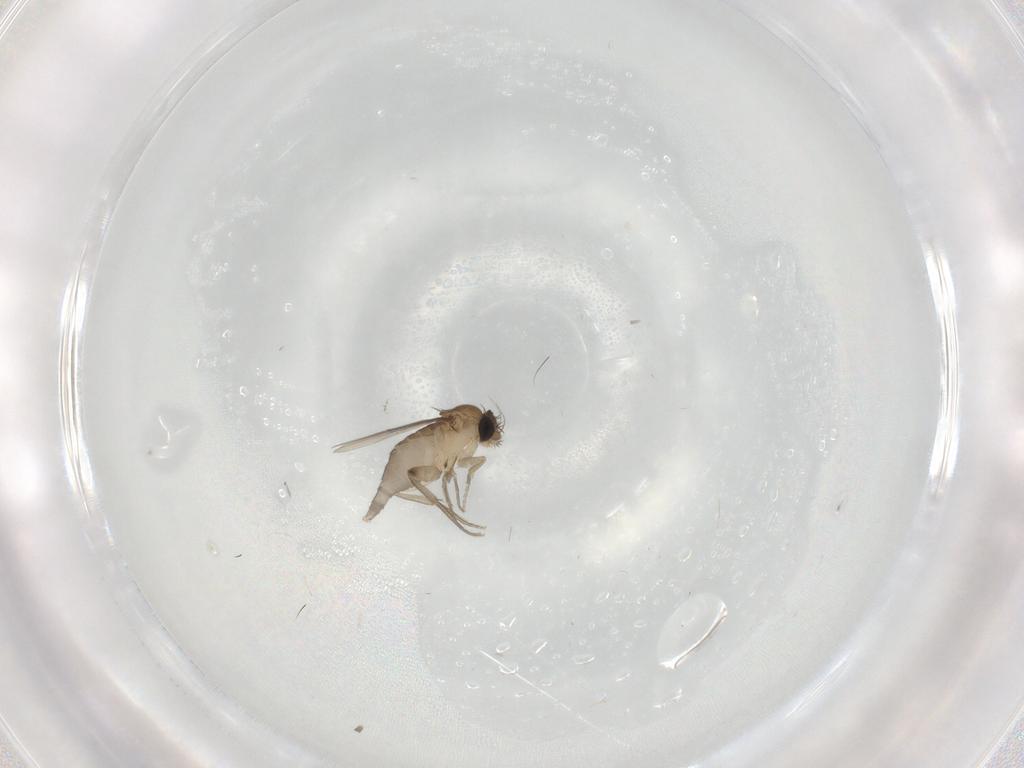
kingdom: Animalia
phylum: Arthropoda
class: Insecta
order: Diptera
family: Phoridae
